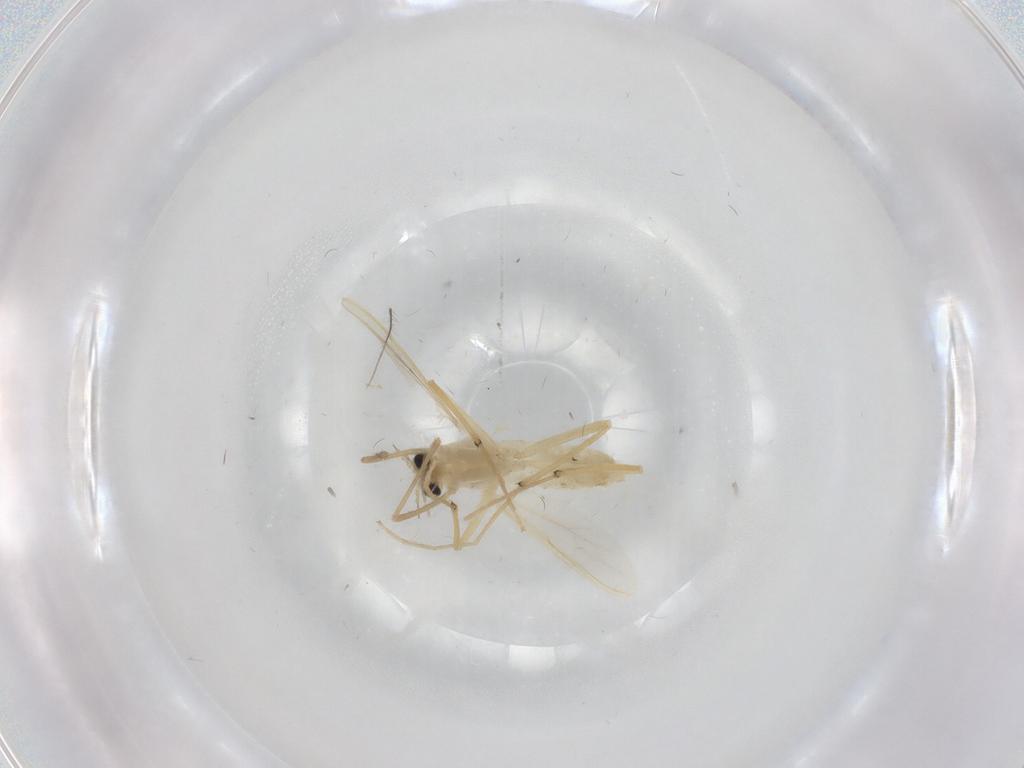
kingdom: Animalia
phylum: Arthropoda
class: Insecta
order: Diptera
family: Chironomidae
